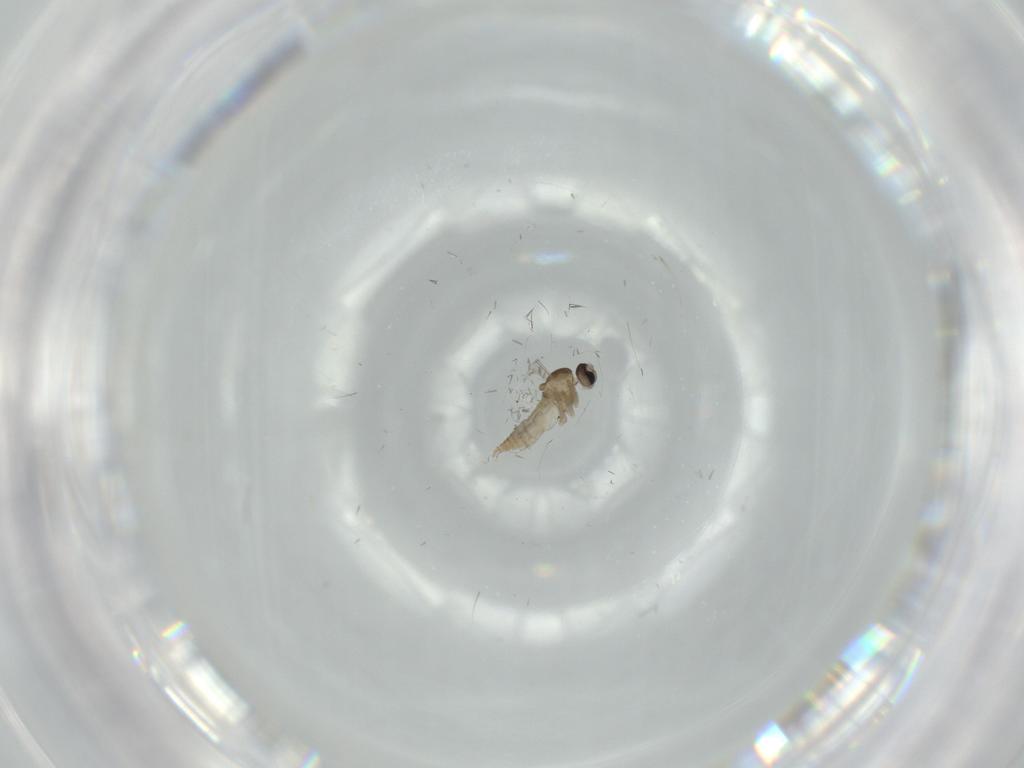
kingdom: Animalia
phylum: Arthropoda
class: Insecta
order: Diptera
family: Cecidomyiidae
